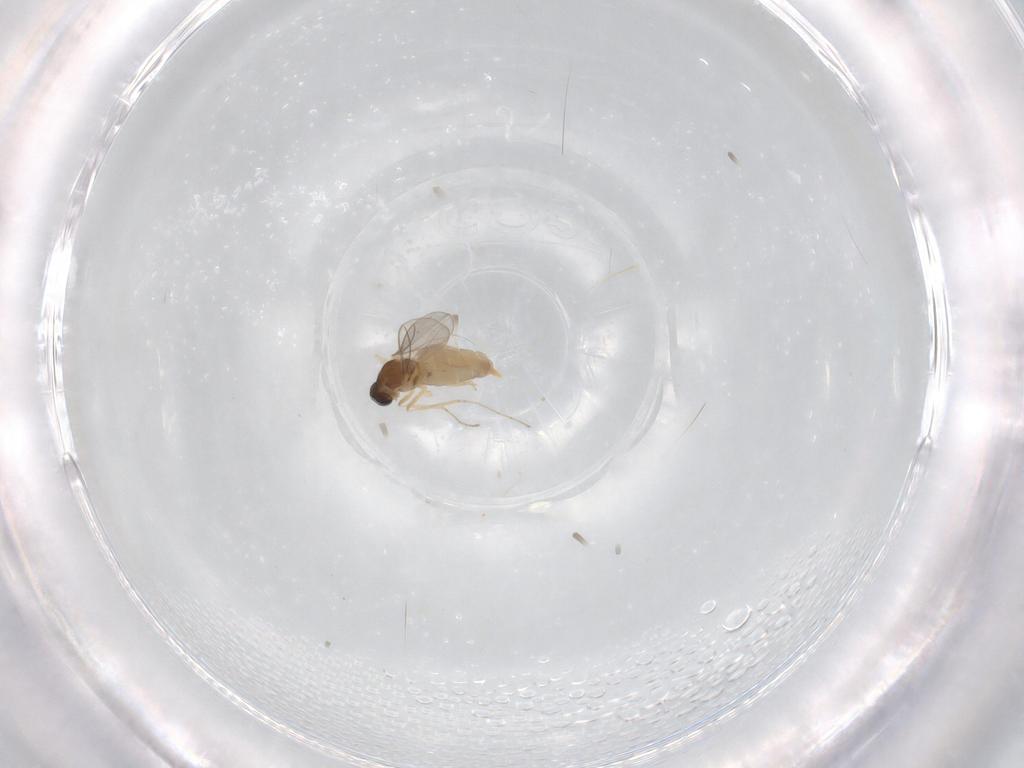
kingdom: Animalia
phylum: Arthropoda
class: Insecta
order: Diptera
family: Cecidomyiidae
